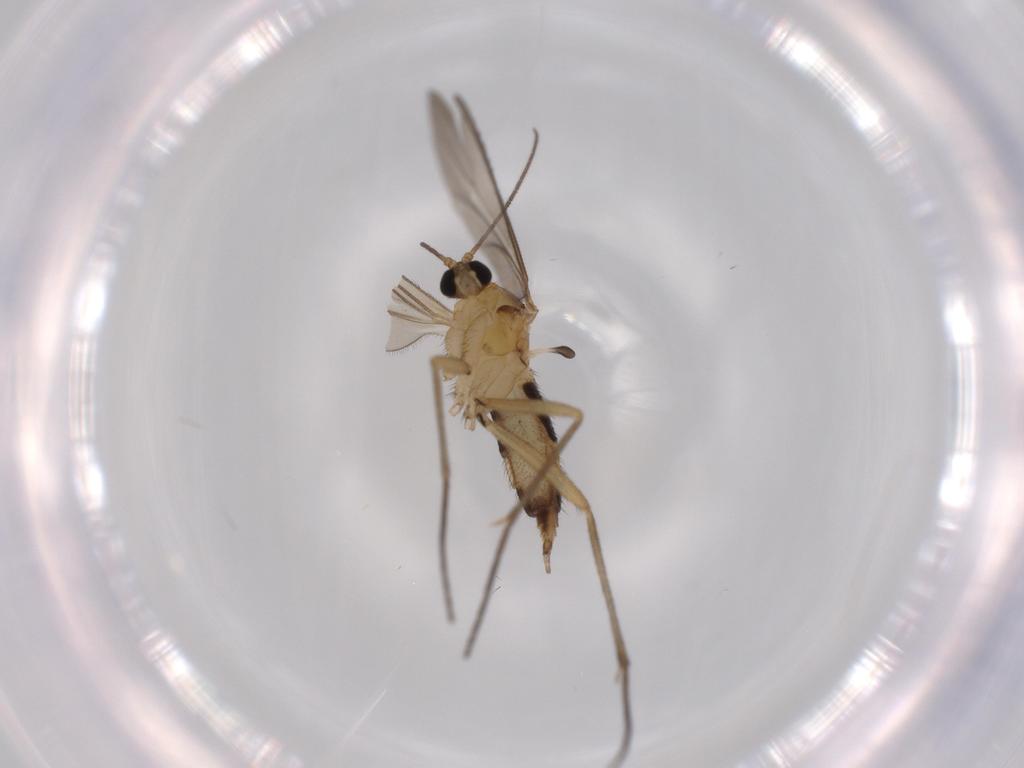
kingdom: Animalia
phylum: Arthropoda
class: Insecta
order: Diptera
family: Sciaridae
